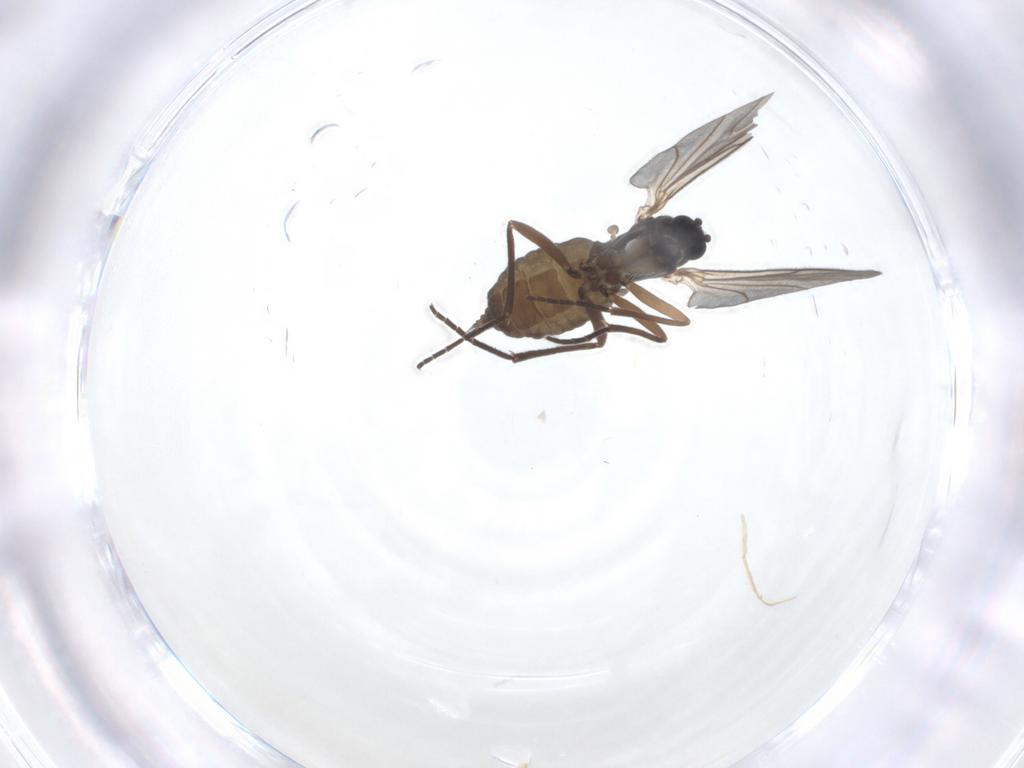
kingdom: Animalia
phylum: Arthropoda
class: Insecta
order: Diptera
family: Sciaridae
